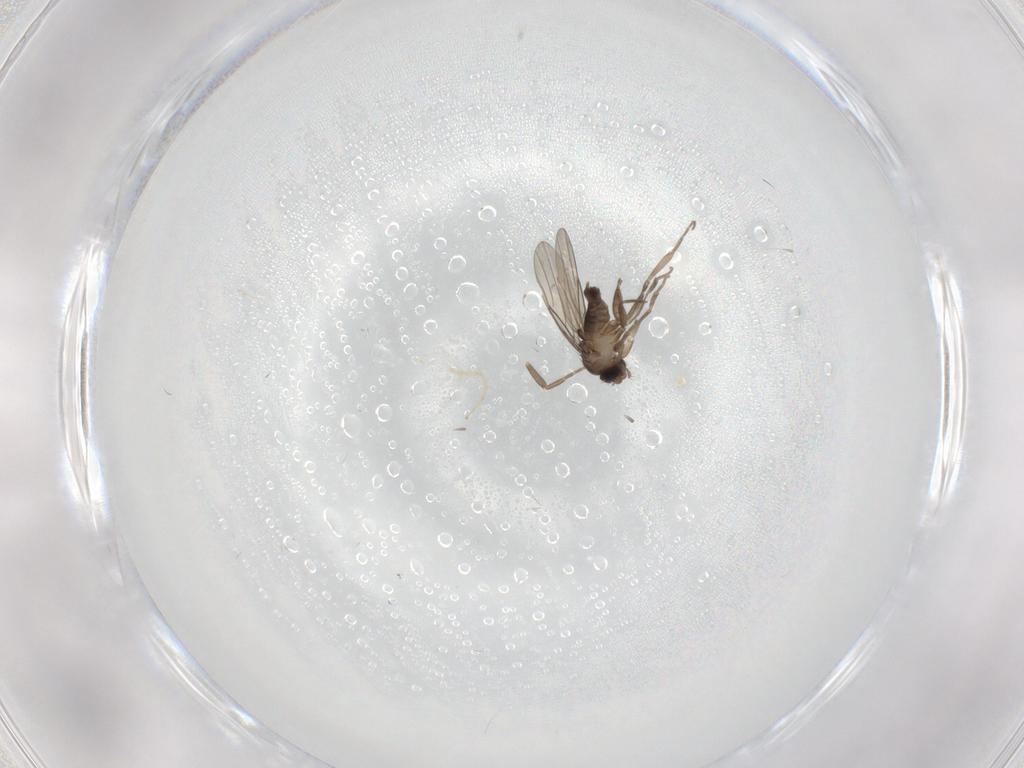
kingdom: Animalia
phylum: Arthropoda
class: Insecta
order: Diptera
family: Phoridae
